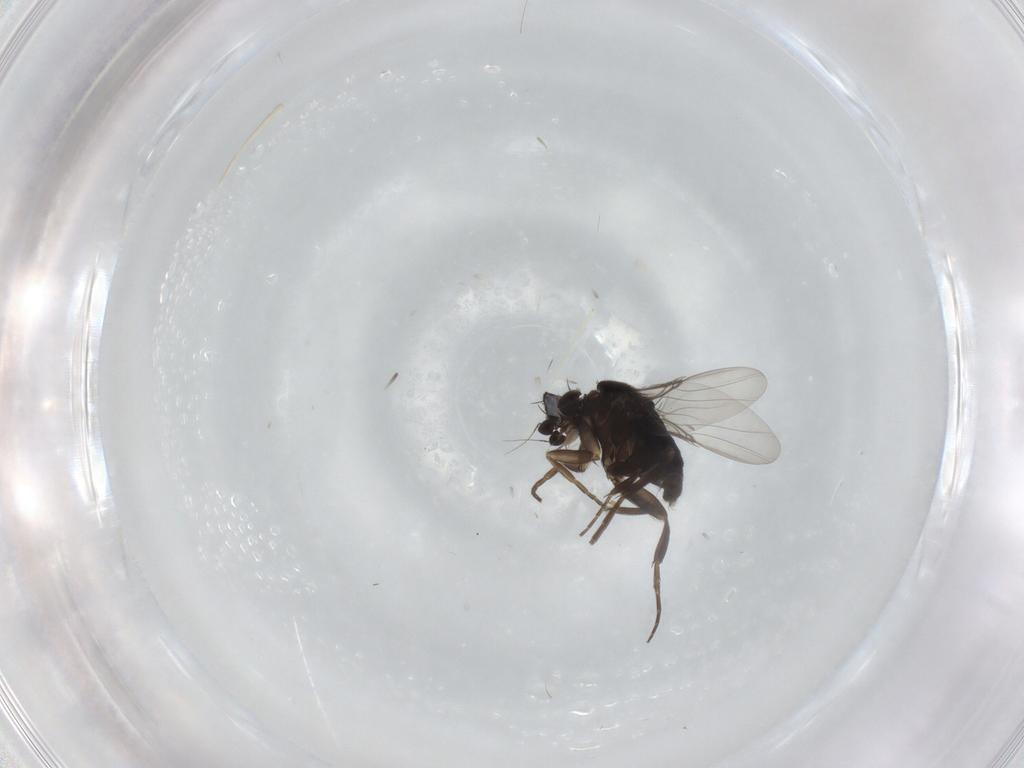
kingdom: Animalia
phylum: Arthropoda
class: Insecta
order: Diptera
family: Phoridae
